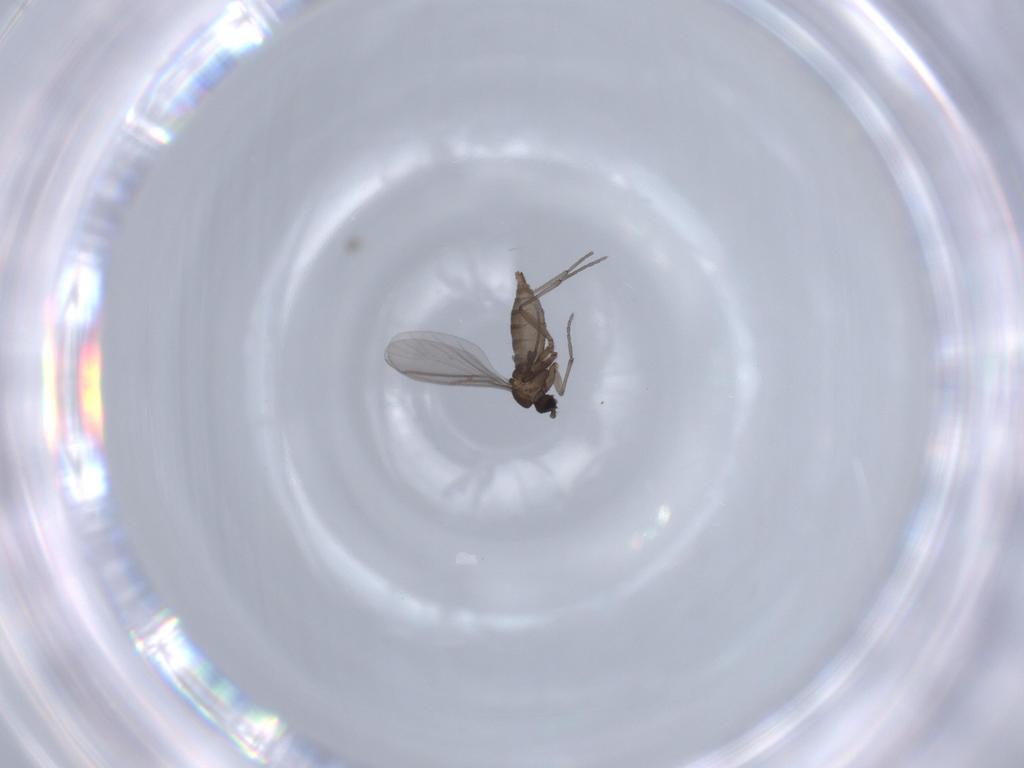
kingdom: Animalia
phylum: Arthropoda
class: Insecta
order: Diptera
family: Sciaridae
